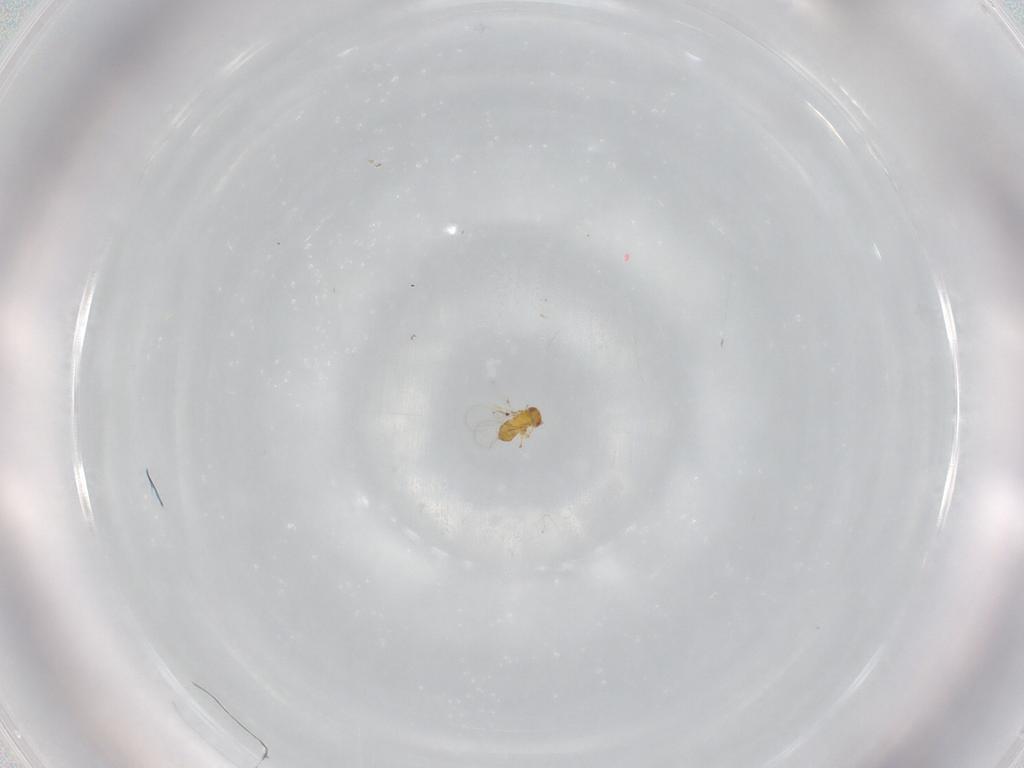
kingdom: Animalia
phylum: Arthropoda
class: Insecta
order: Hymenoptera
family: Trichogrammatidae
